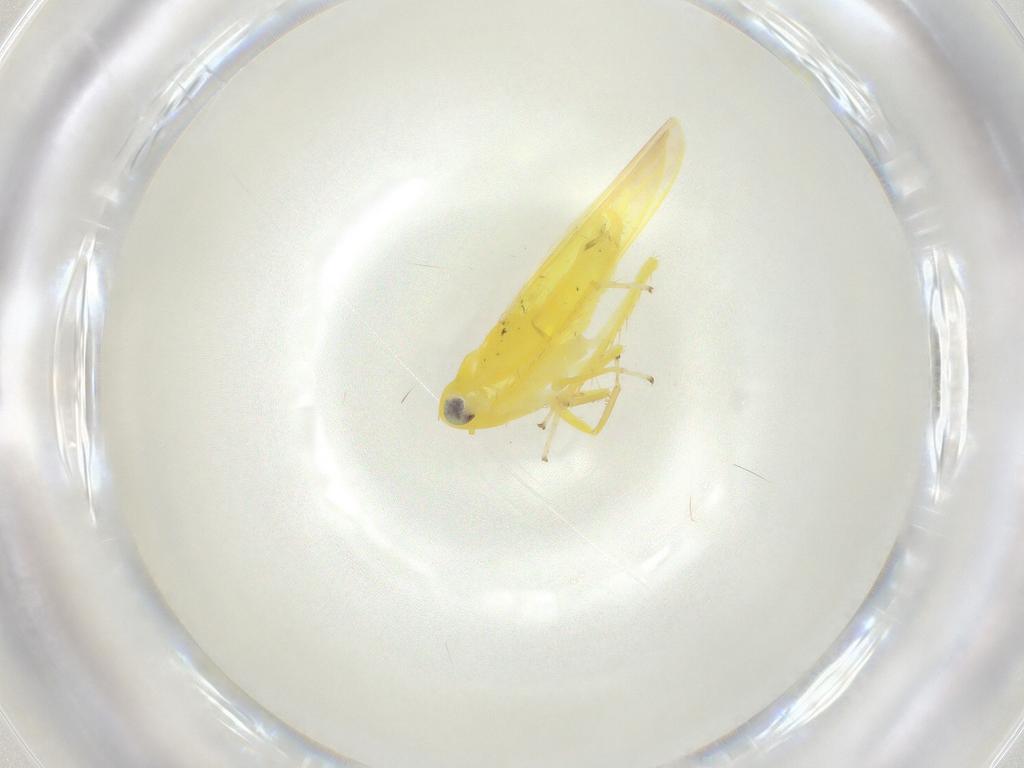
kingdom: Animalia
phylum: Arthropoda
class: Insecta
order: Hemiptera
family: Cicadellidae
